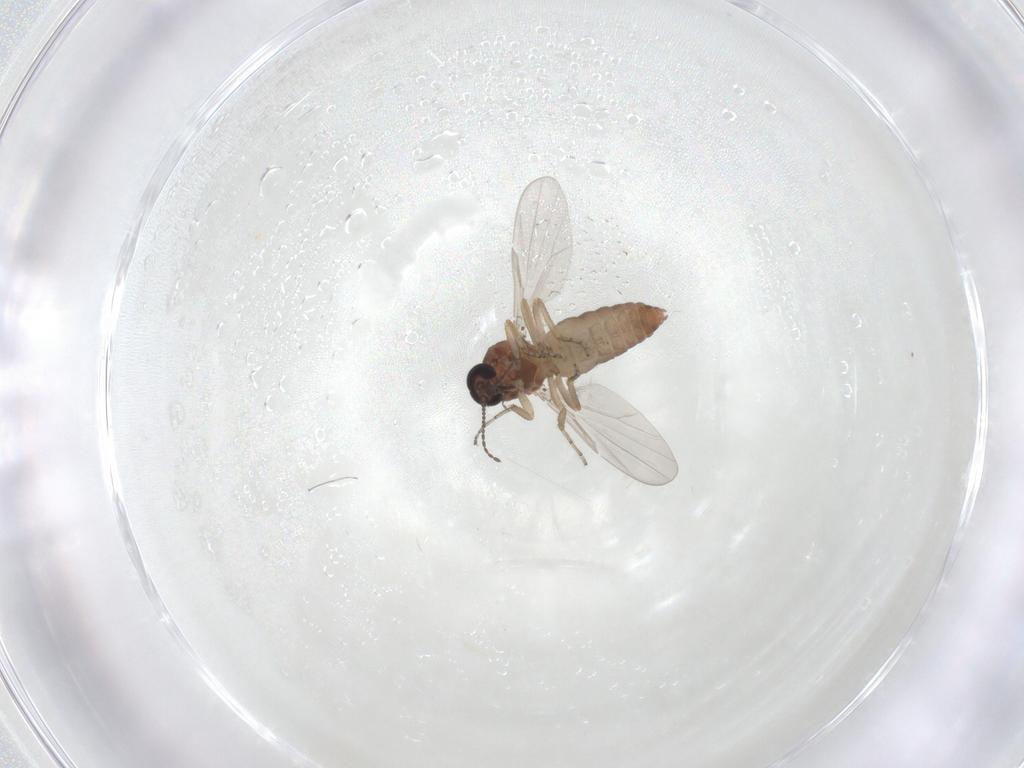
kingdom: Animalia
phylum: Arthropoda
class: Insecta
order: Diptera
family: Ceratopogonidae
